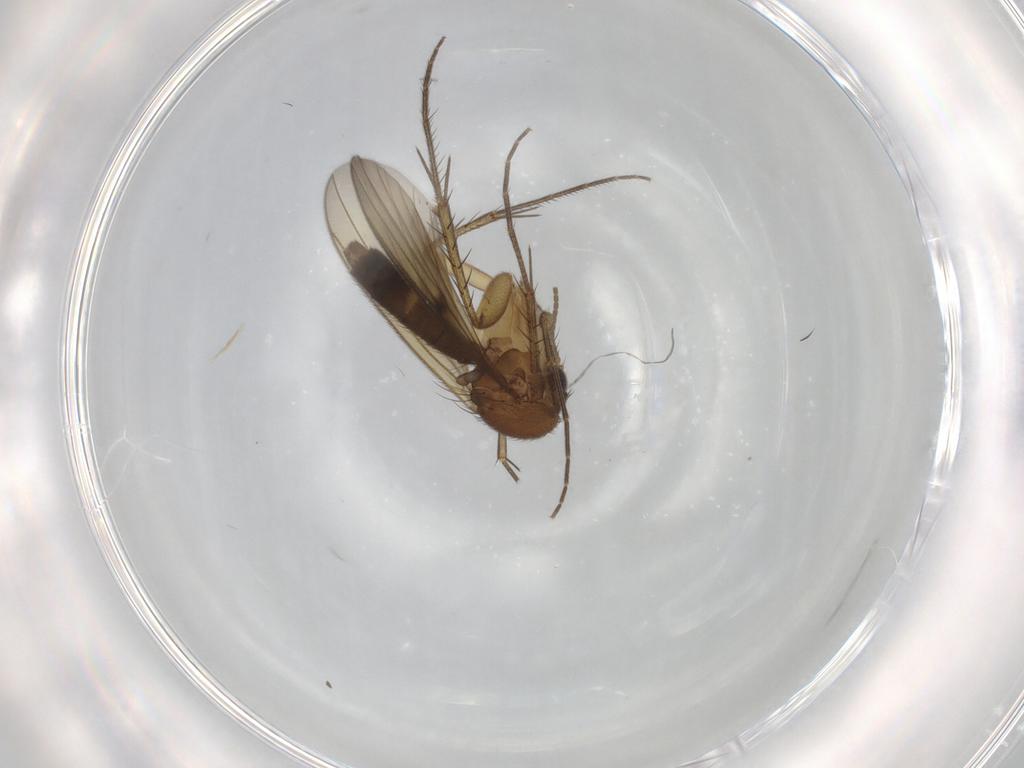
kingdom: Animalia
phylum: Arthropoda
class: Insecta
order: Diptera
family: Mycetophilidae
